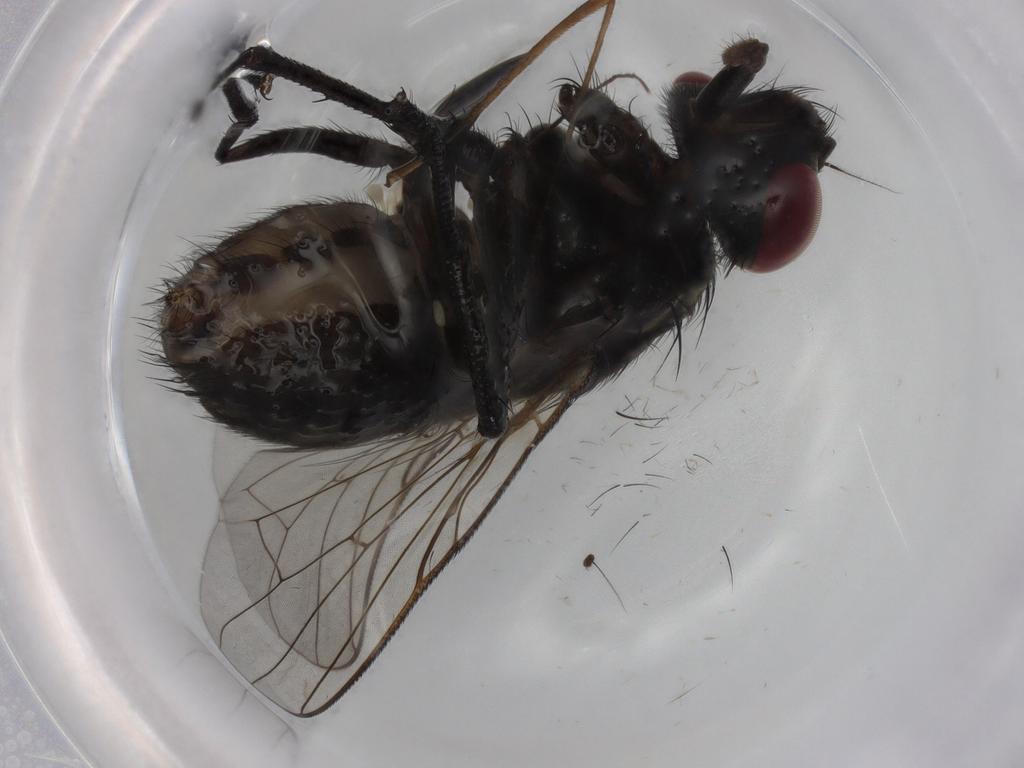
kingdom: Animalia
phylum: Arthropoda
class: Insecta
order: Diptera
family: Muscidae
